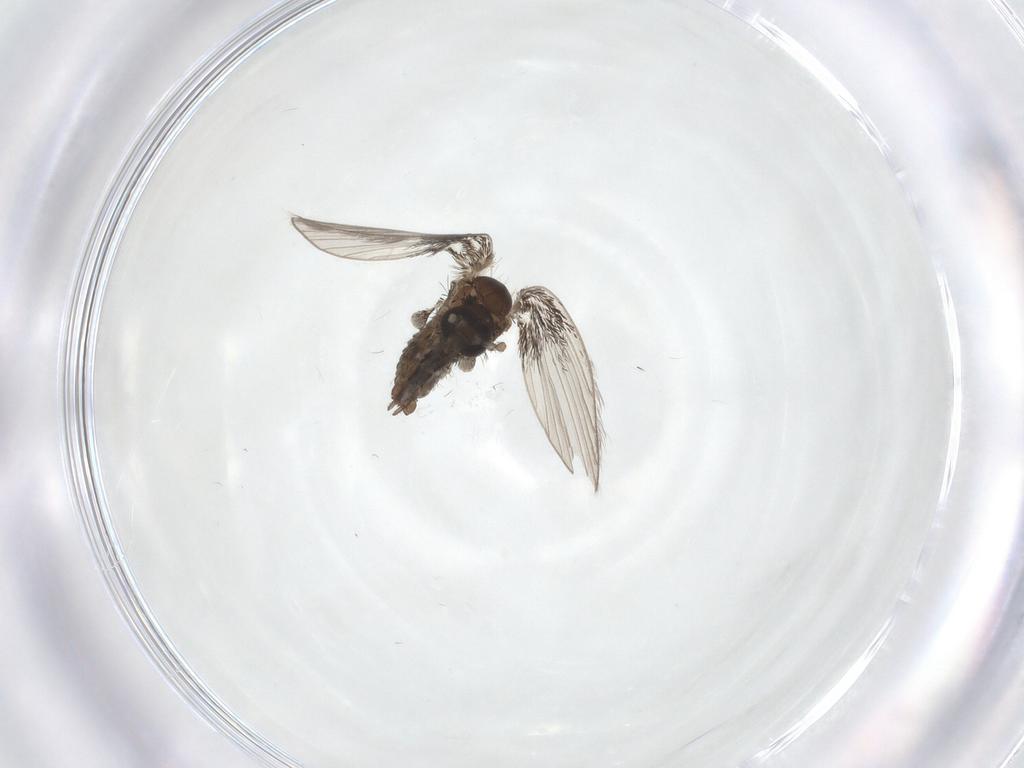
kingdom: Animalia
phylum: Arthropoda
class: Insecta
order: Diptera
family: Psychodidae
